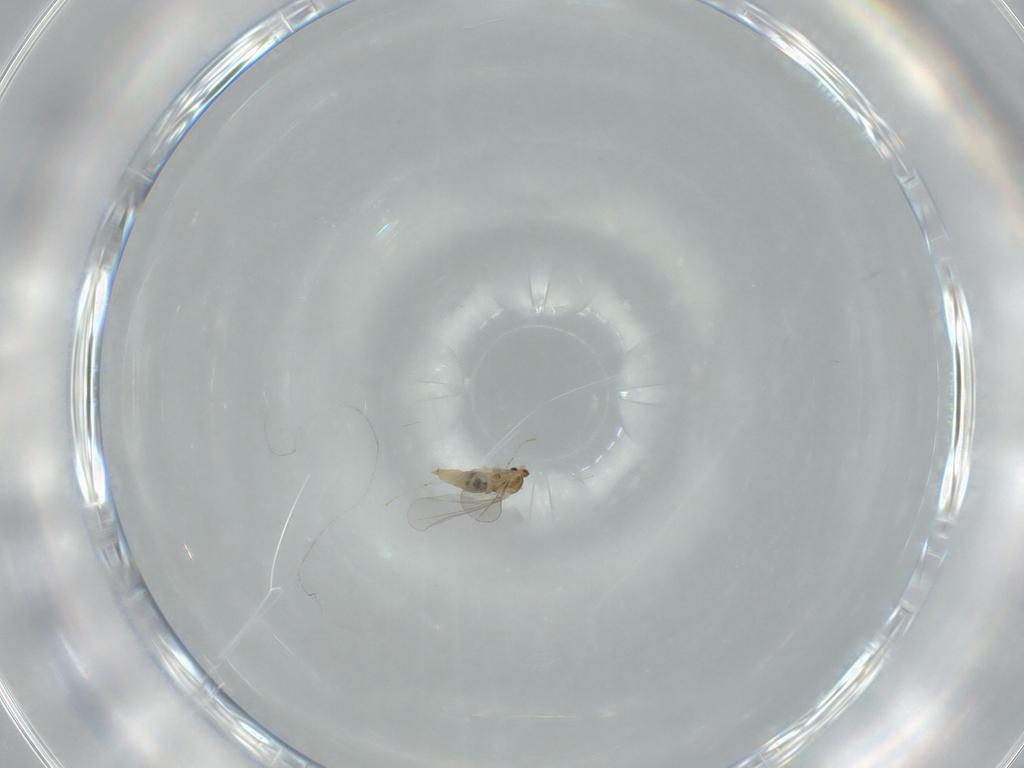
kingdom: Animalia
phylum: Arthropoda
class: Insecta
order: Diptera
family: Cecidomyiidae
